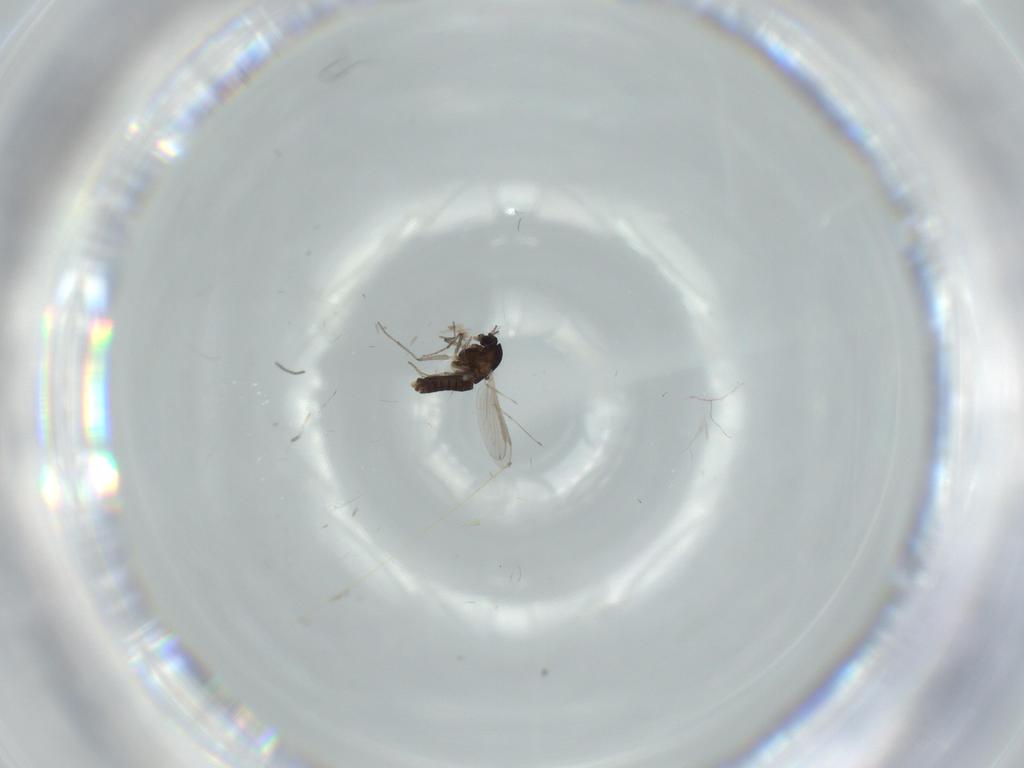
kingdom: Animalia
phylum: Arthropoda
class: Insecta
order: Diptera
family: Chironomidae
